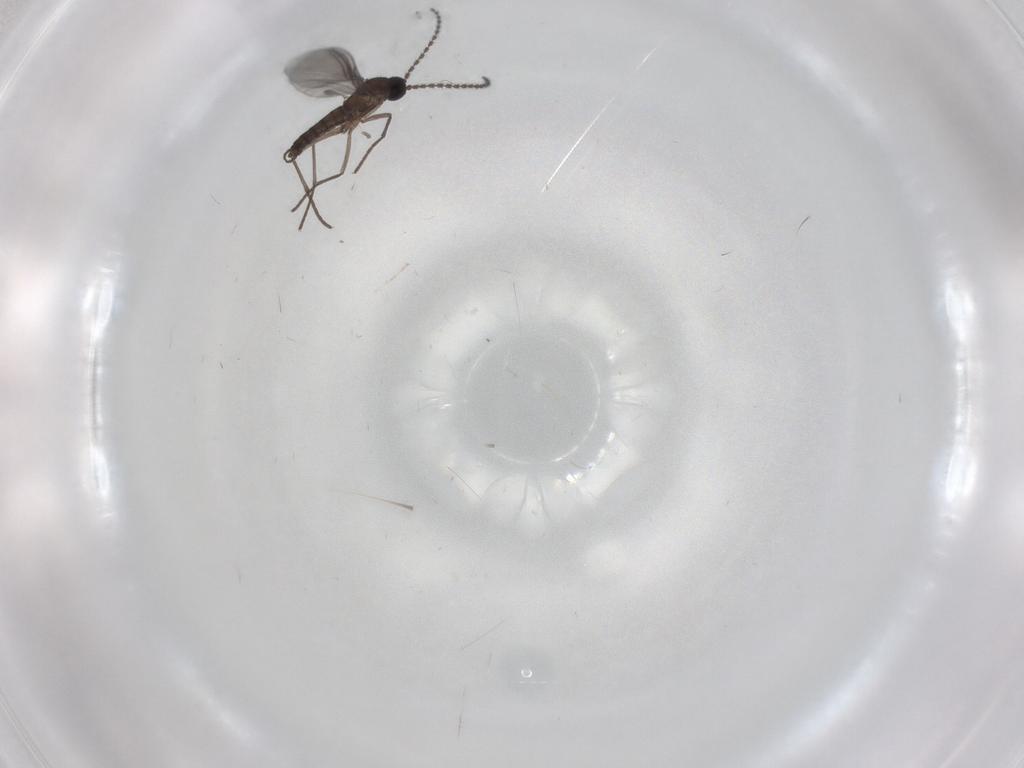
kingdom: Animalia
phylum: Arthropoda
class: Insecta
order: Diptera
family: Sciaridae
